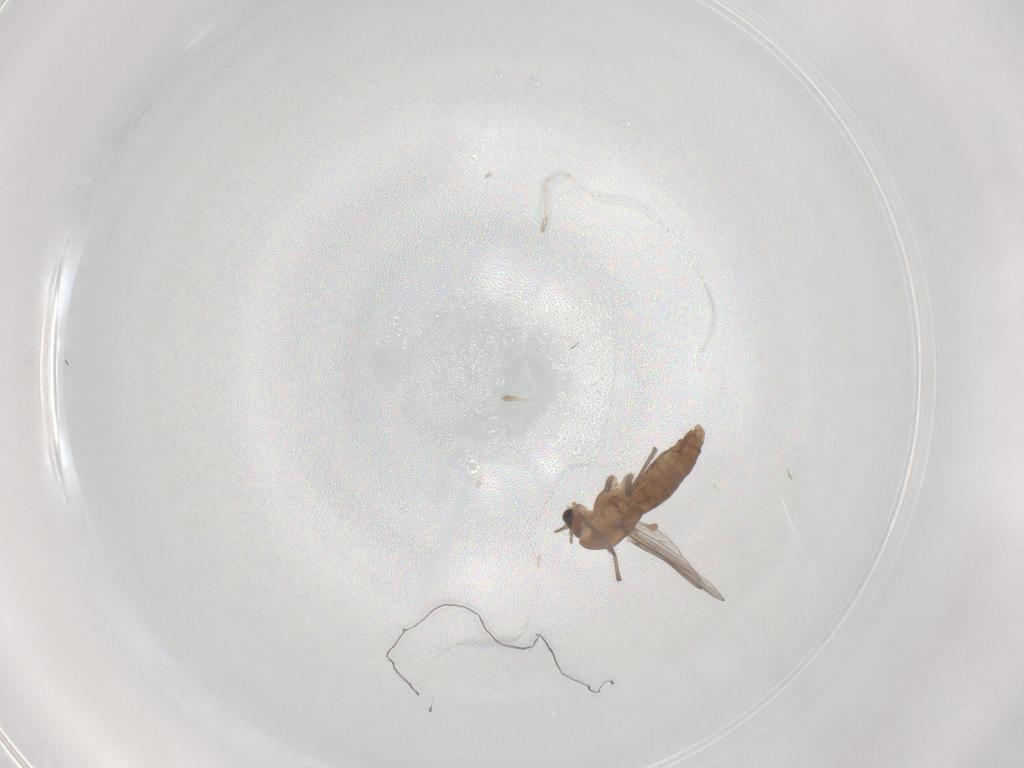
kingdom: Animalia
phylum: Arthropoda
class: Insecta
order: Diptera
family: Chironomidae
